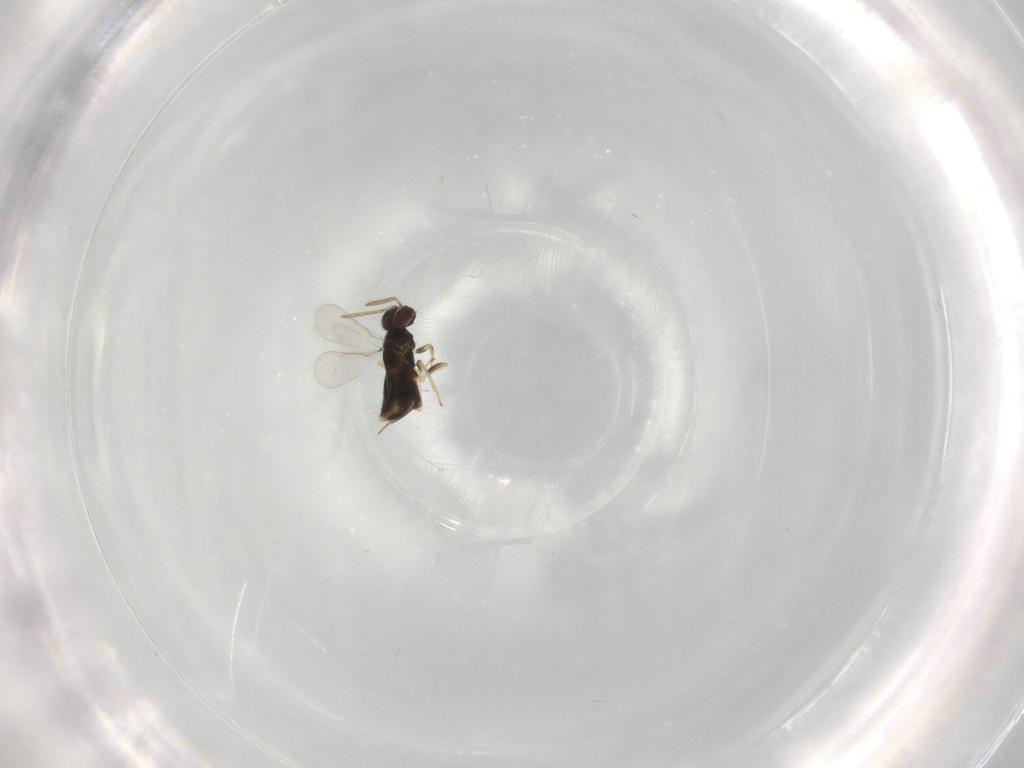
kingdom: Animalia
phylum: Arthropoda
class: Insecta
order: Hymenoptera
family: Aphelinidae
